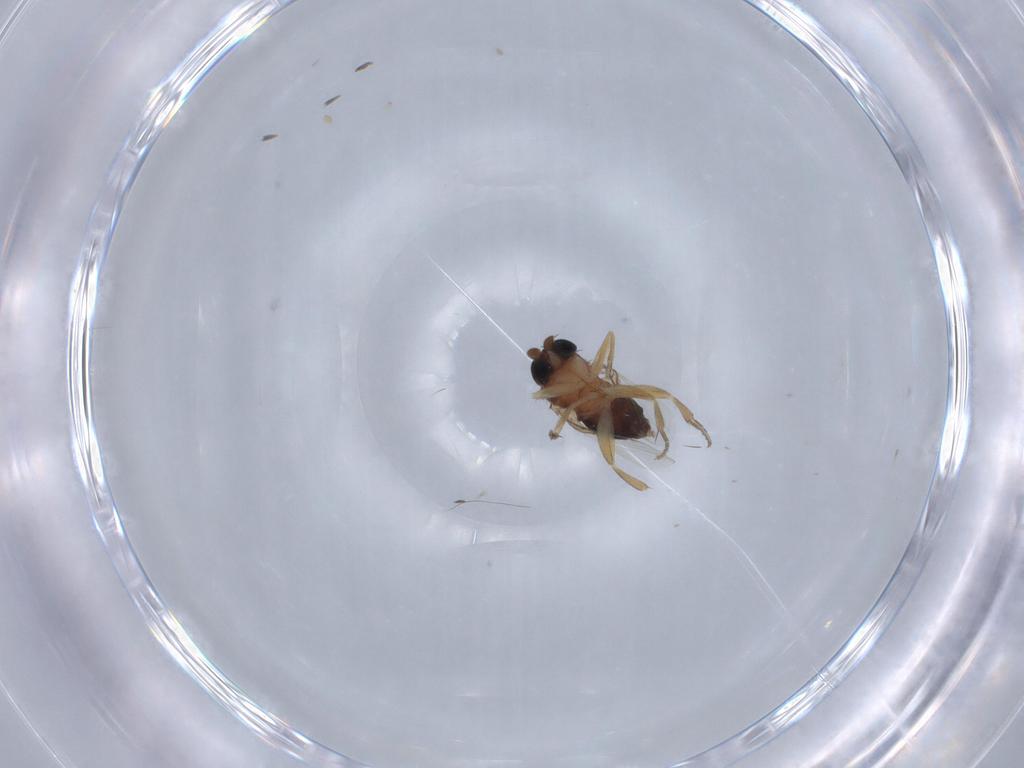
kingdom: Animalia
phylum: Arthropoda
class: Insecta
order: Diptera
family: Phoridae
